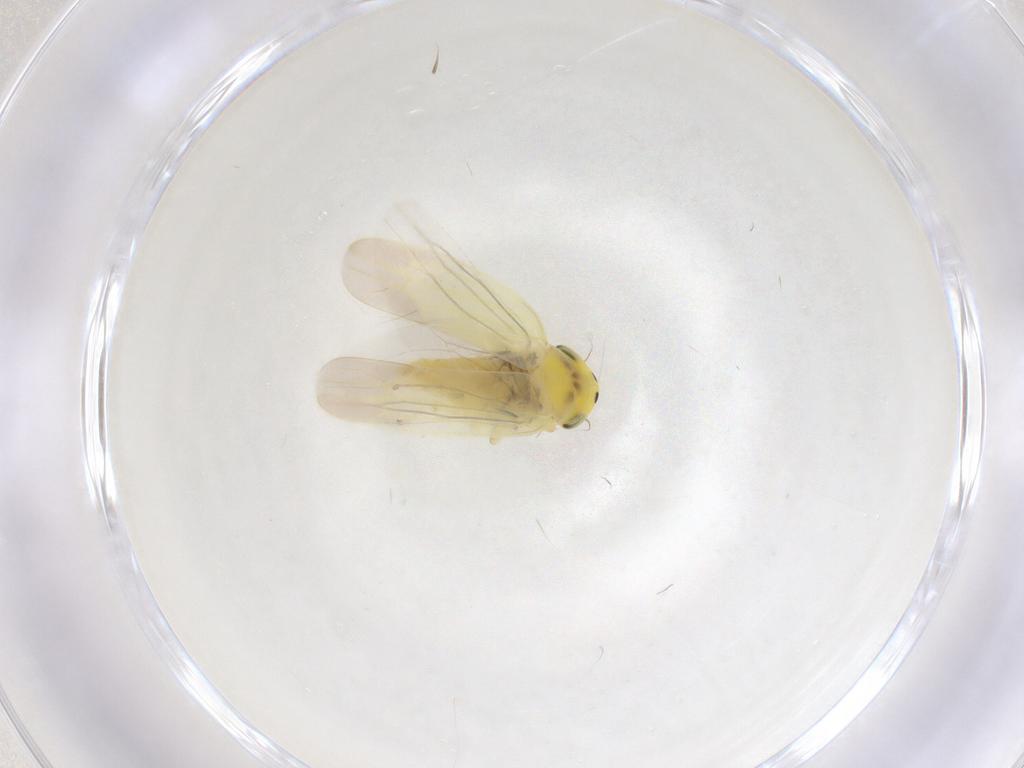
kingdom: Animalia
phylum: Arthropoda
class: Insecta
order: Hemiptera
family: Cicadellidae
